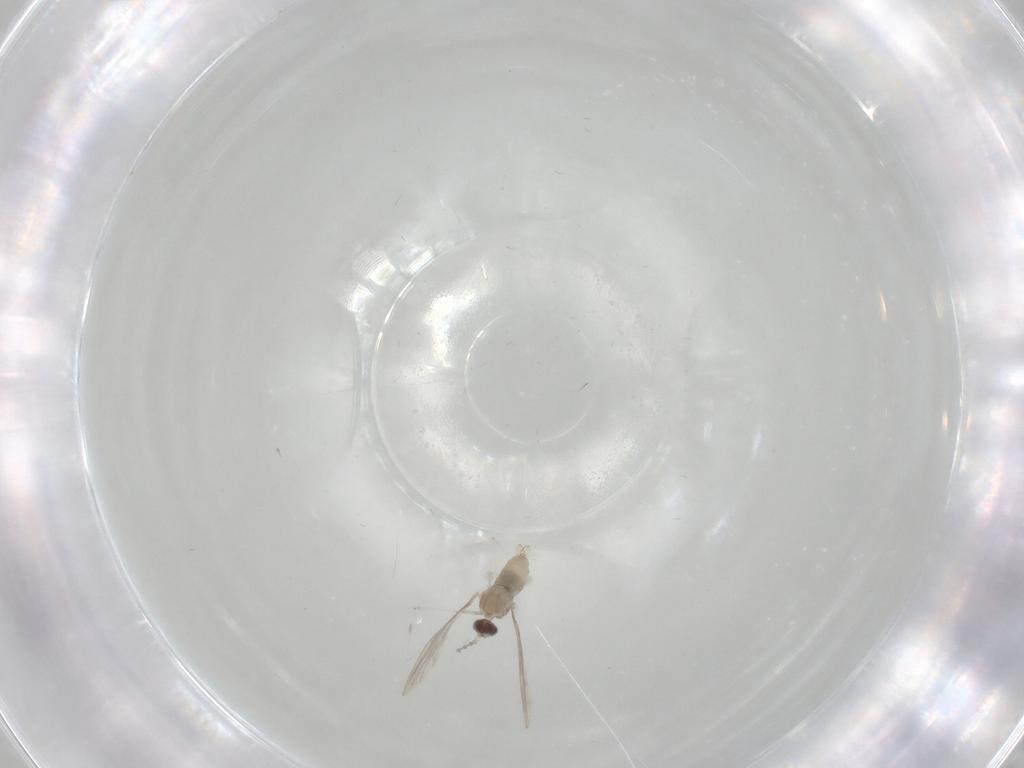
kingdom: Animalia
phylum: Arthropoda
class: Insecta
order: Diptera
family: Cecidomyiidae
